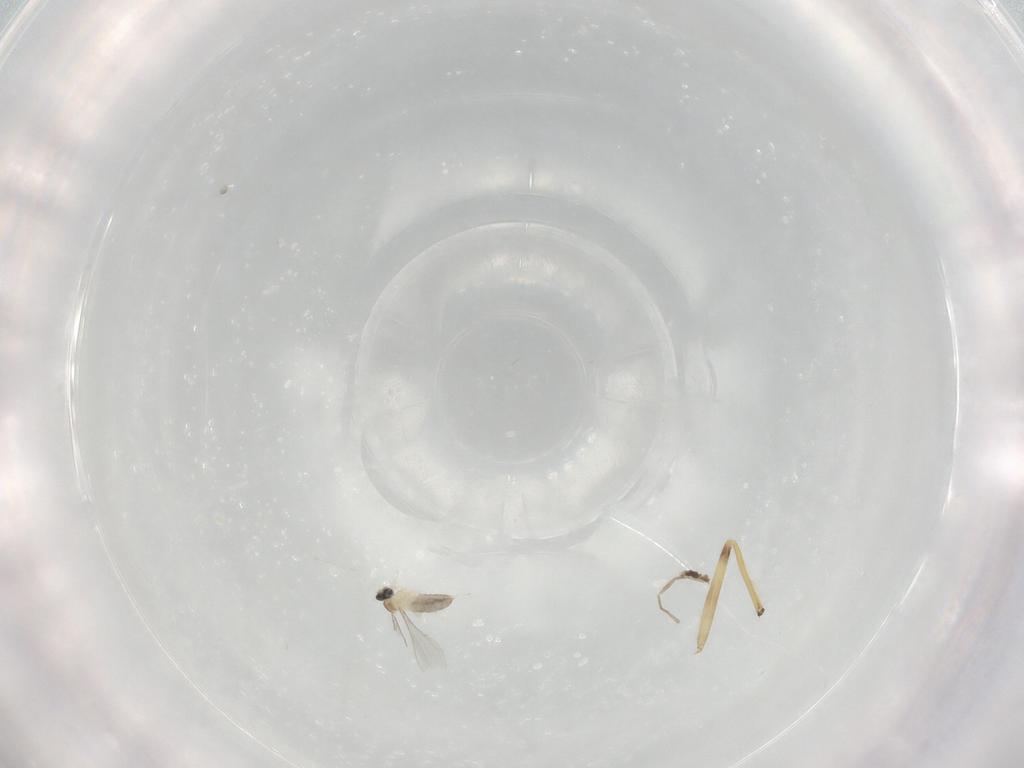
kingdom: Animalia
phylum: Arthropoda
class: Insecta
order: Diptera
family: Cecidomyiidae
